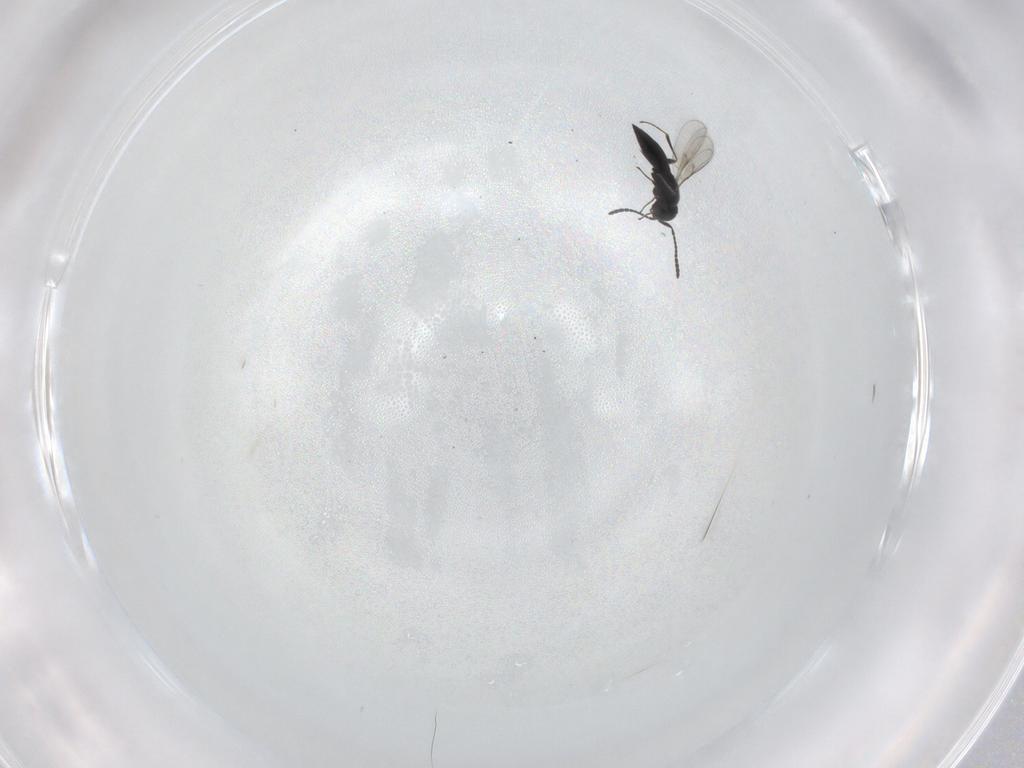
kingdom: Animalia
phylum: Arthropoda
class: Insecta
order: Hymenoptera
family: Scelionidae
